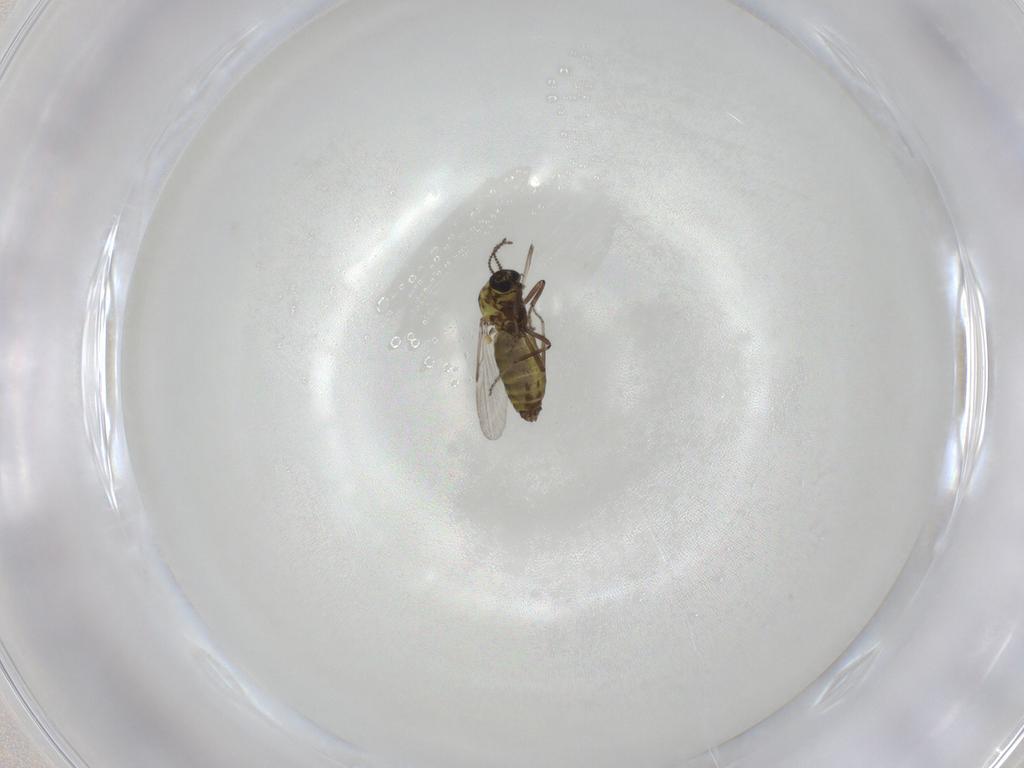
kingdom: Animalia
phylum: Arthropoda
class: Insecta
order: Diptera
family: Ceratopogonidae
